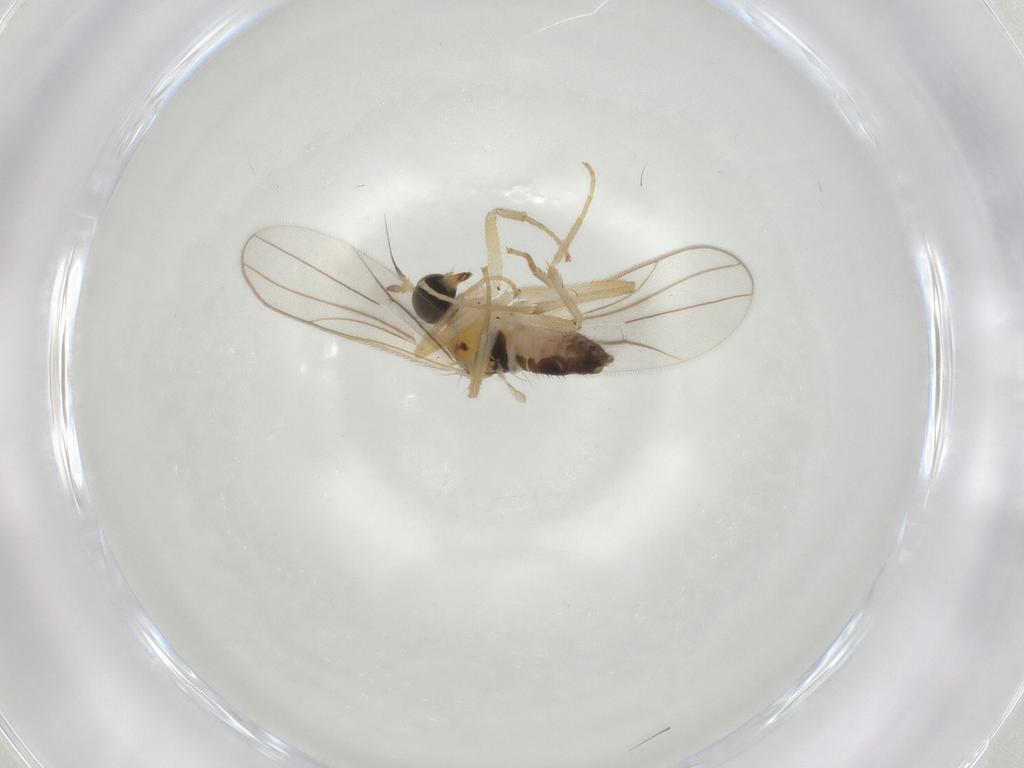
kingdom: Animalia
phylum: Arthropoda
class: Insecta
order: Diptera
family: Hybotidae
